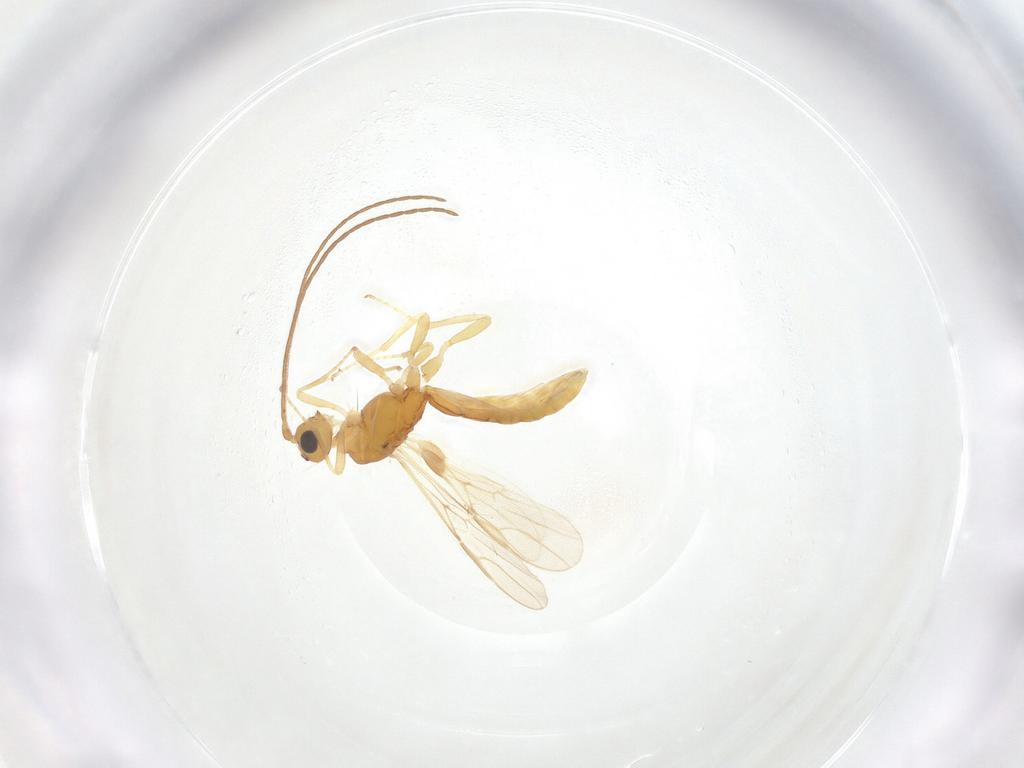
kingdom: Animalia
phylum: Arthropoda
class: Insecta
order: Hymenoptera
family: Braconidae
